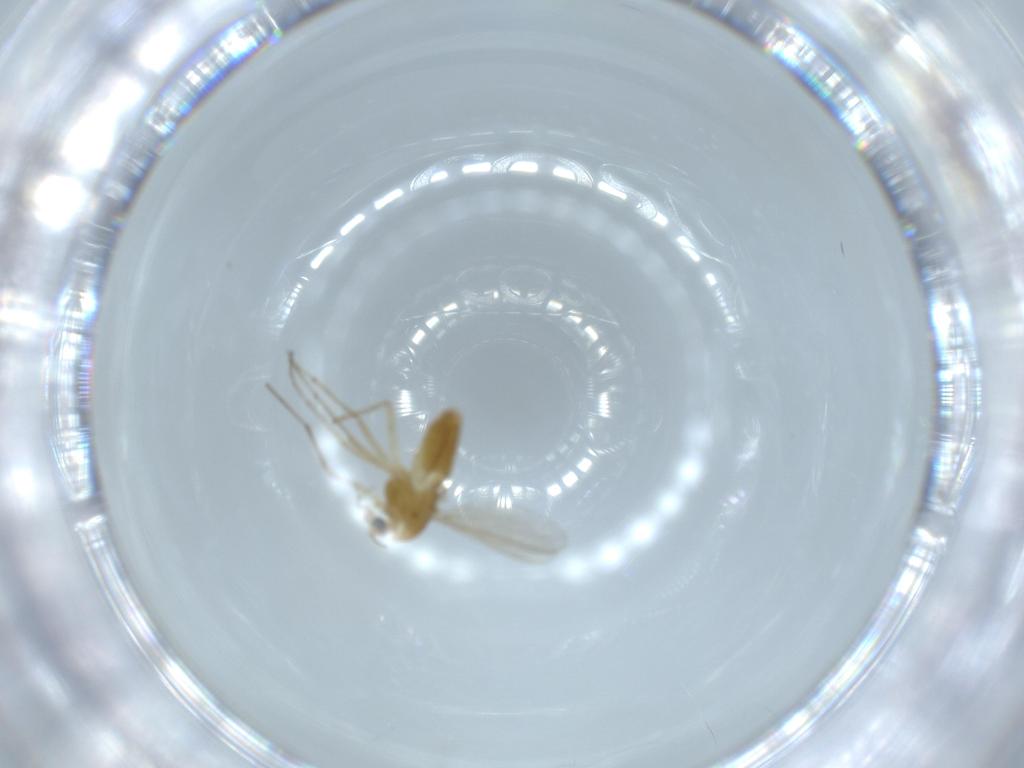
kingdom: Animalia
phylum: Arthropoda
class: Insecta
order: Diptera
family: Chironomidae
